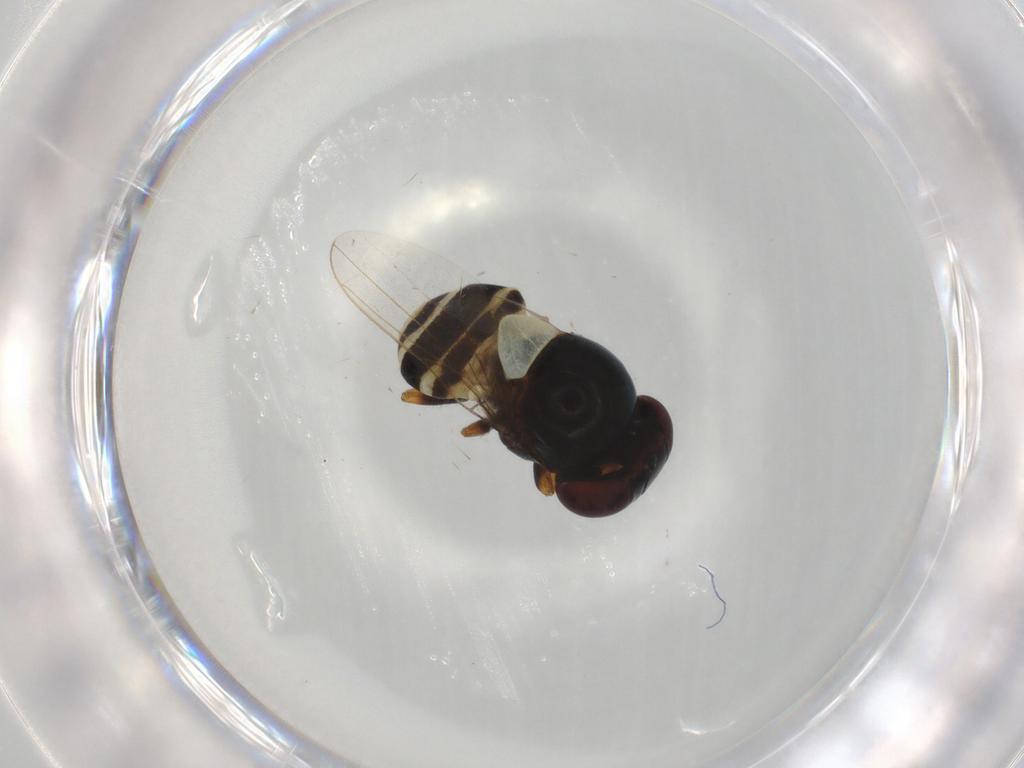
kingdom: Animalia
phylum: Arthropoda
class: Insecta
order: Diptera
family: Chloropidae
